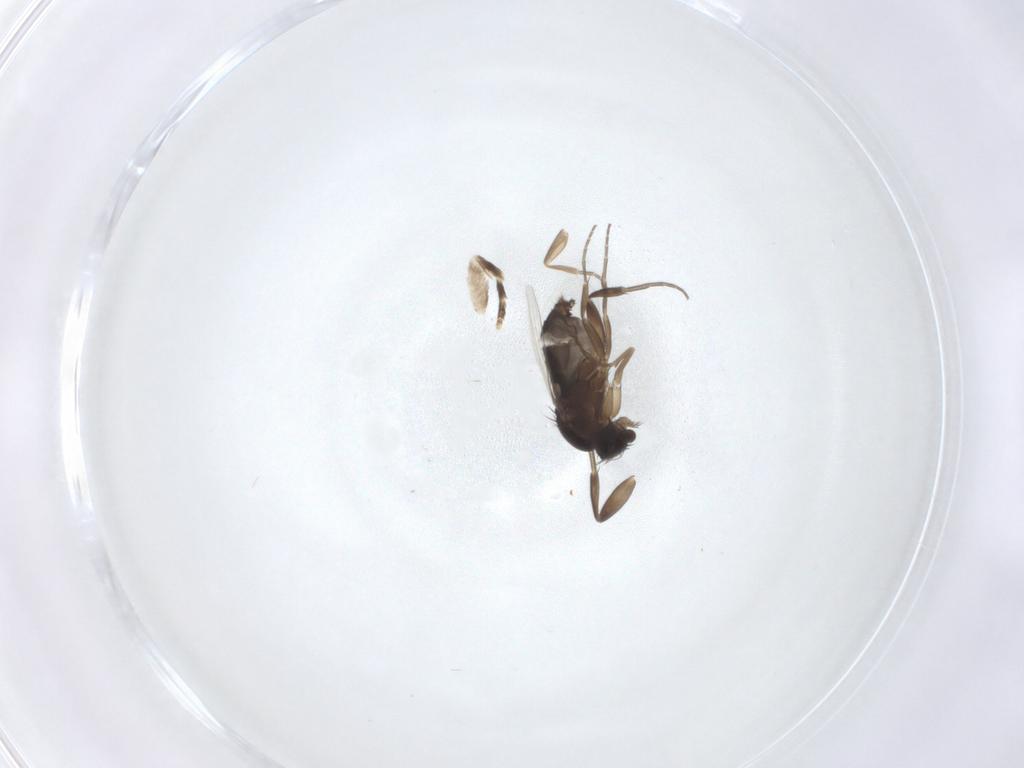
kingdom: Animalia
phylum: Arthropoda
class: Insecta
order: Diptera
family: Phoridae
